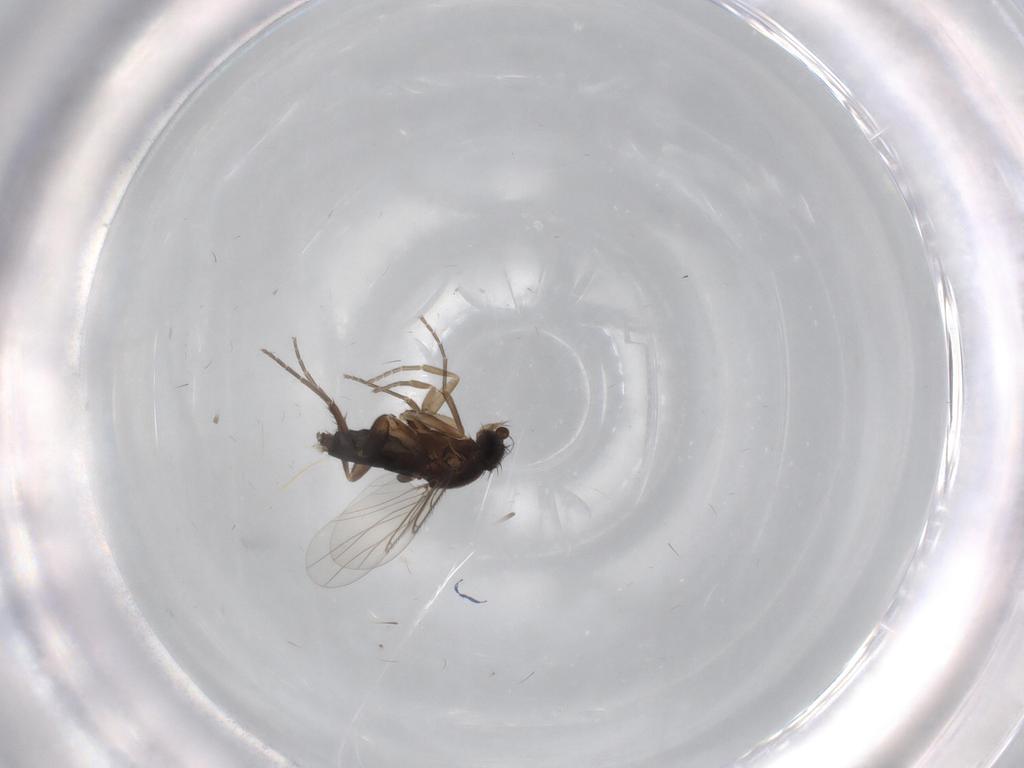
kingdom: Animalia
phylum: Arthropoda
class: Insecta
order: Diptera
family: Phoridae
